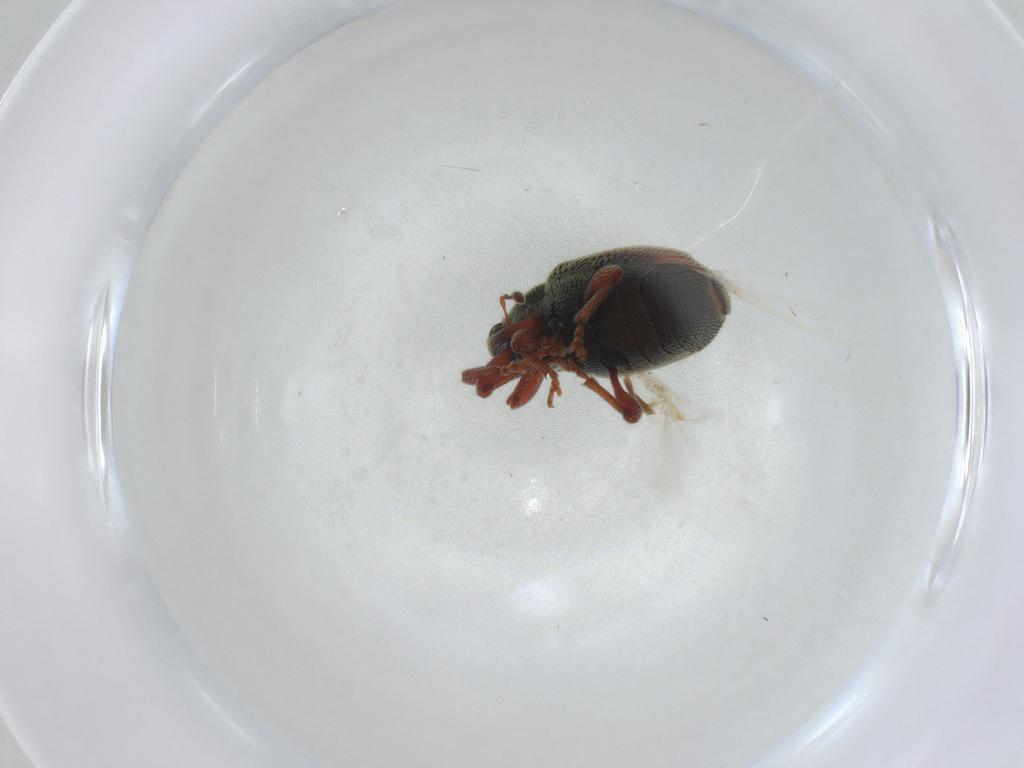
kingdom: Animalia
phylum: Arthropoda
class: Insecta
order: Coleoptera
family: Curculionidae
